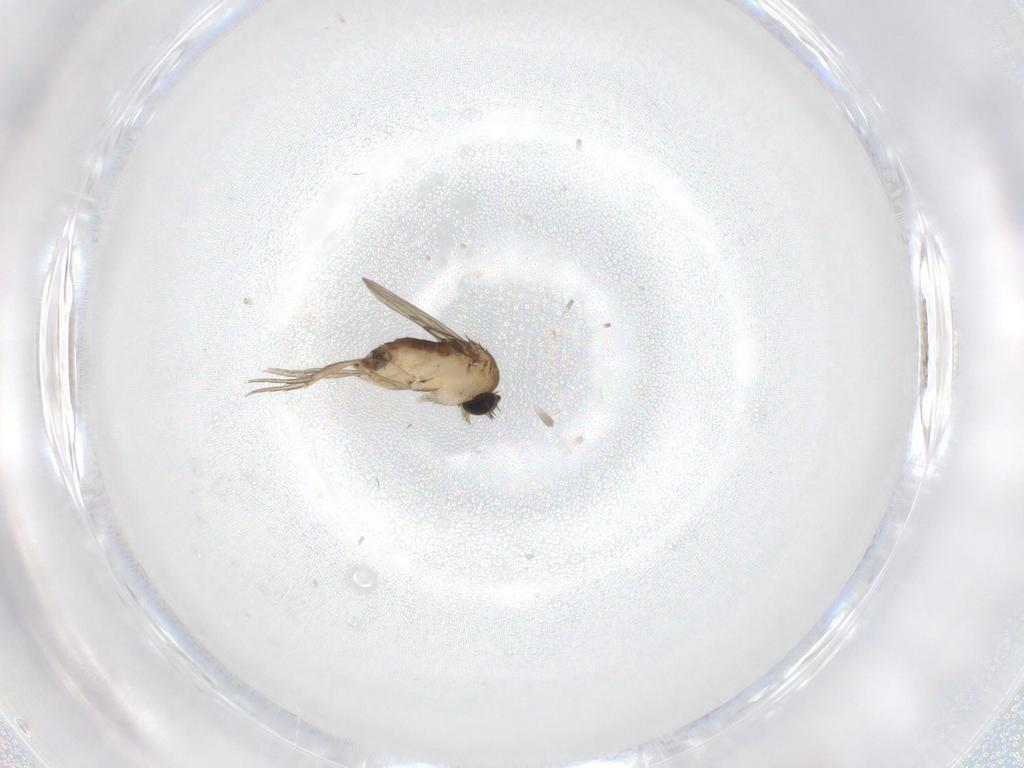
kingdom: Animalia
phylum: Arthropoda
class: Insecta
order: Diptera
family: Phoridae
